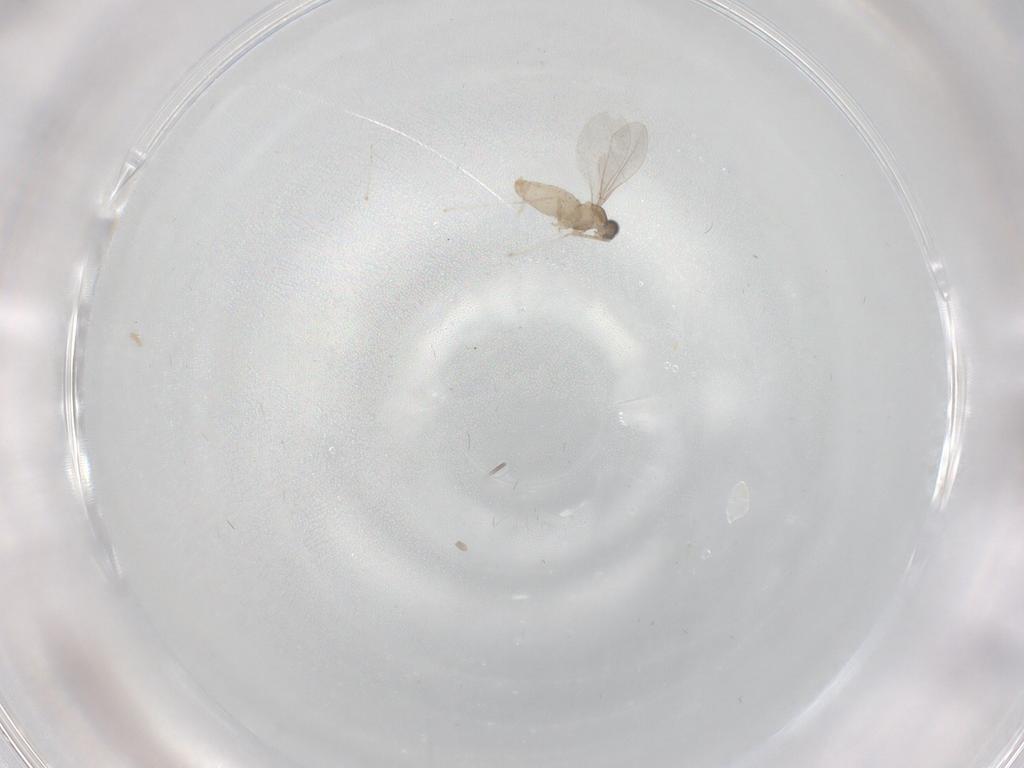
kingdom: Animalia
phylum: Arthropoda
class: Insecta
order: Diptera
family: Cecidomyiidae
